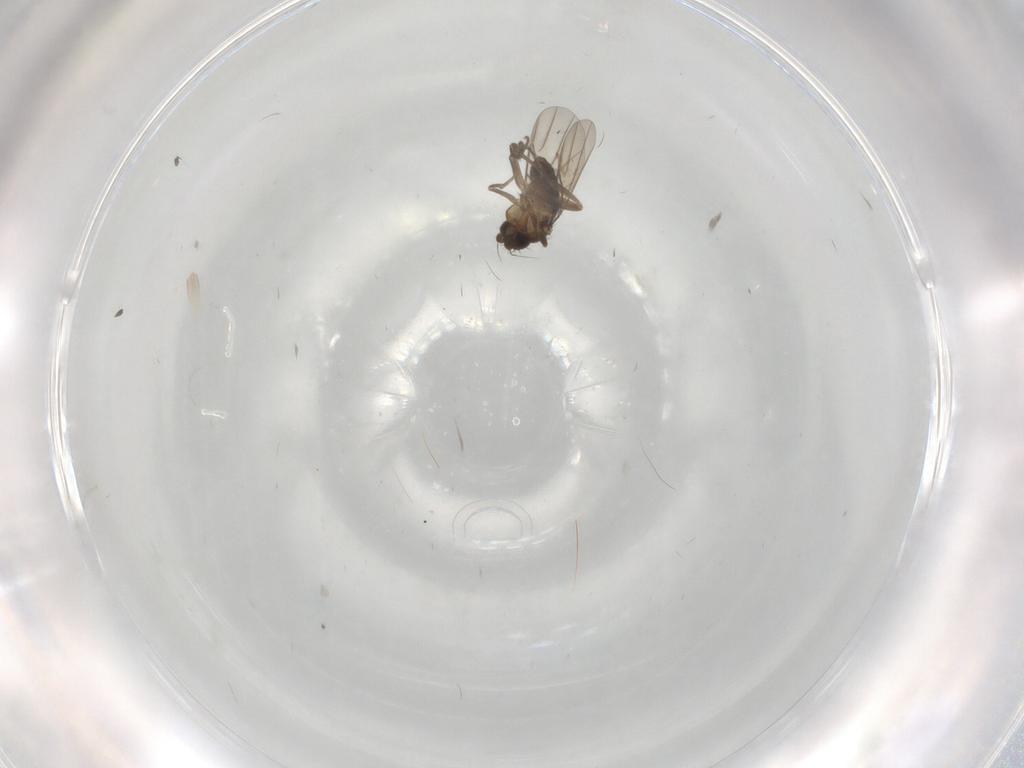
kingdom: Animalia
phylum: Arthropoda
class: Insecta
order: Diptera
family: Phoridae
